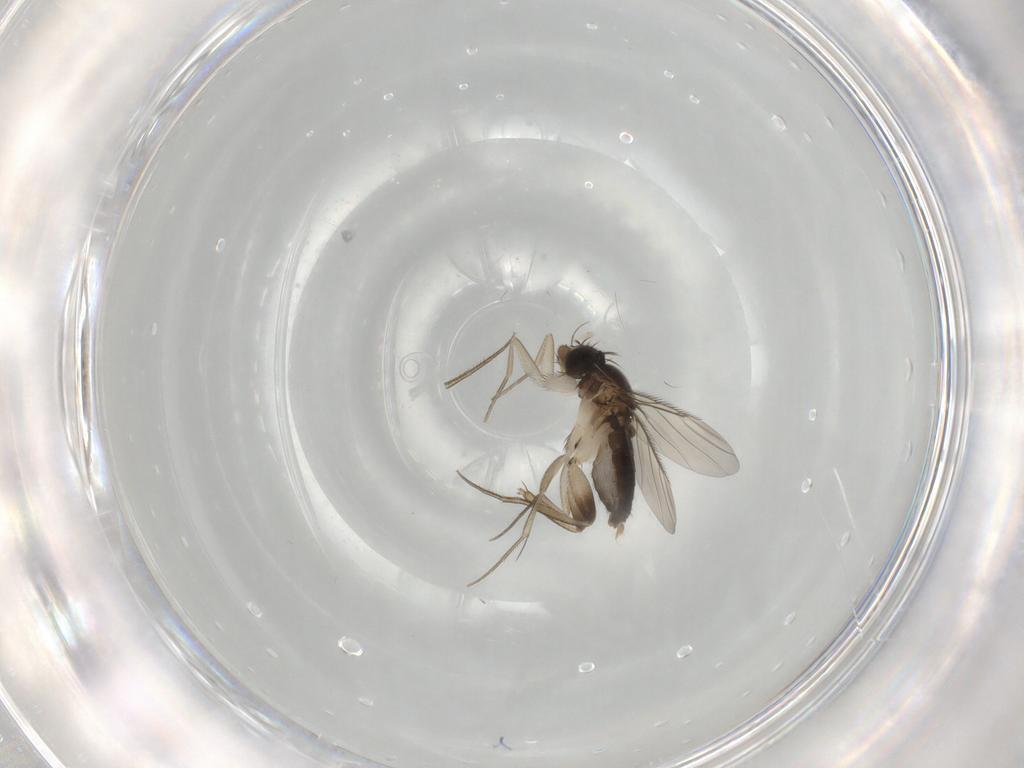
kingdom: Animalia
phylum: Arthropoda
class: Insecta
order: Diptera
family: Phoridae
